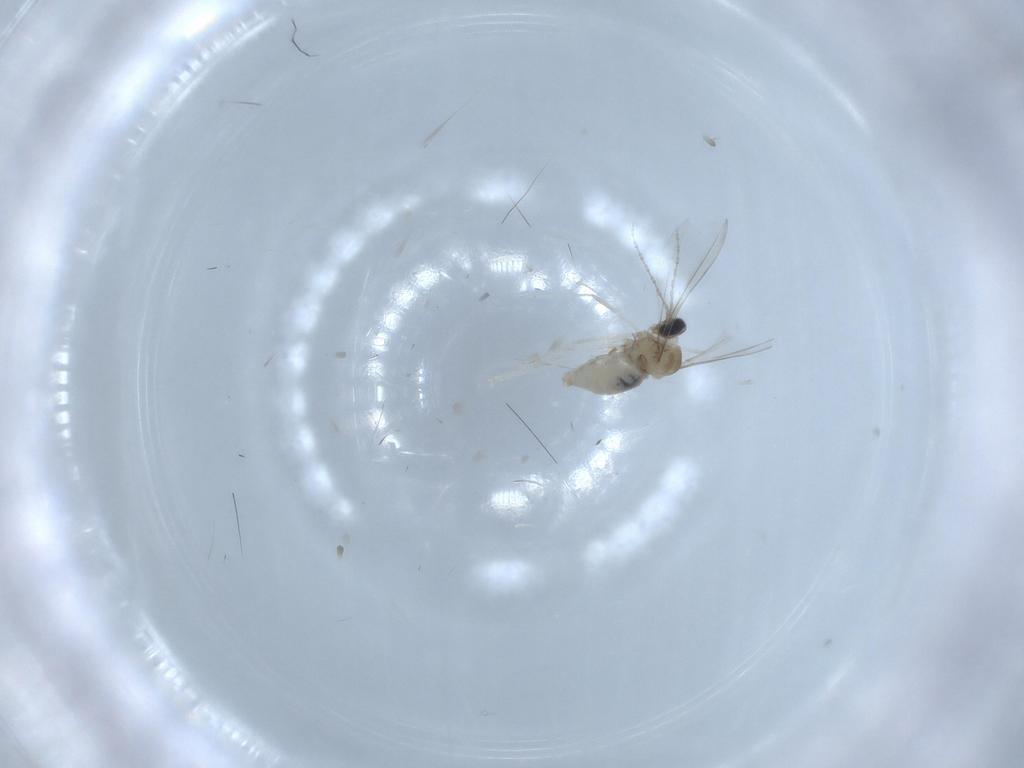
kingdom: Animalia
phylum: Arthropoda
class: Insecta
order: Diptera
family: Cecidomyiidae
